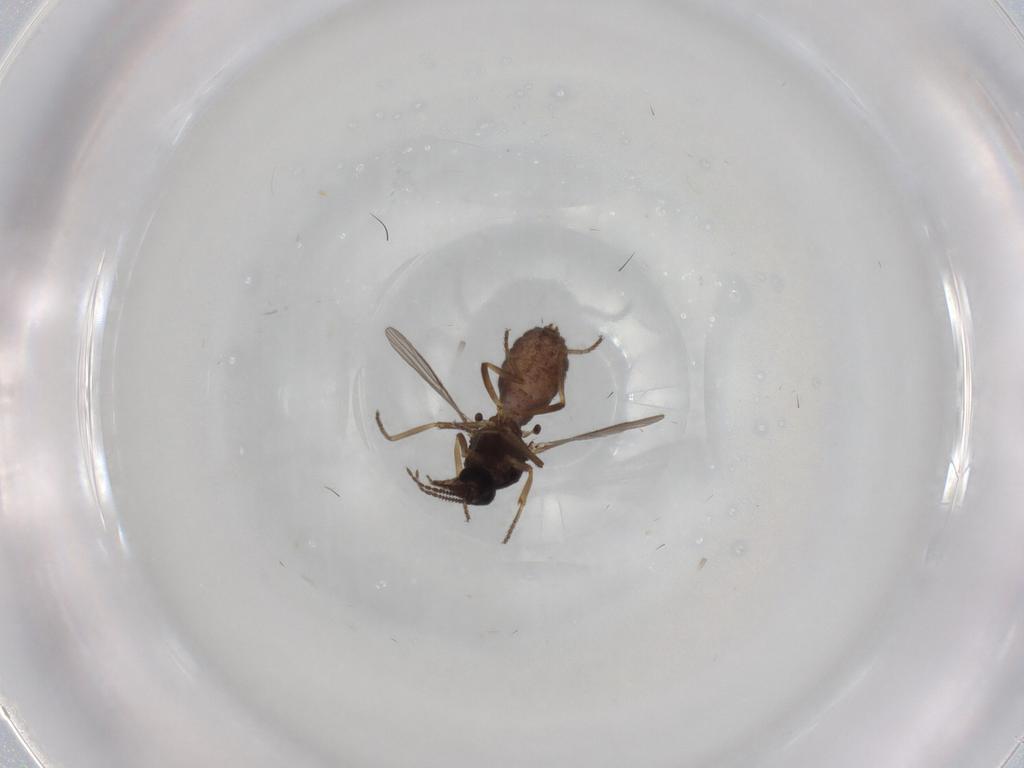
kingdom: Animalia
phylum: Arthropoda
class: Insecta
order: Diptera
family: Ceratopogonidae
